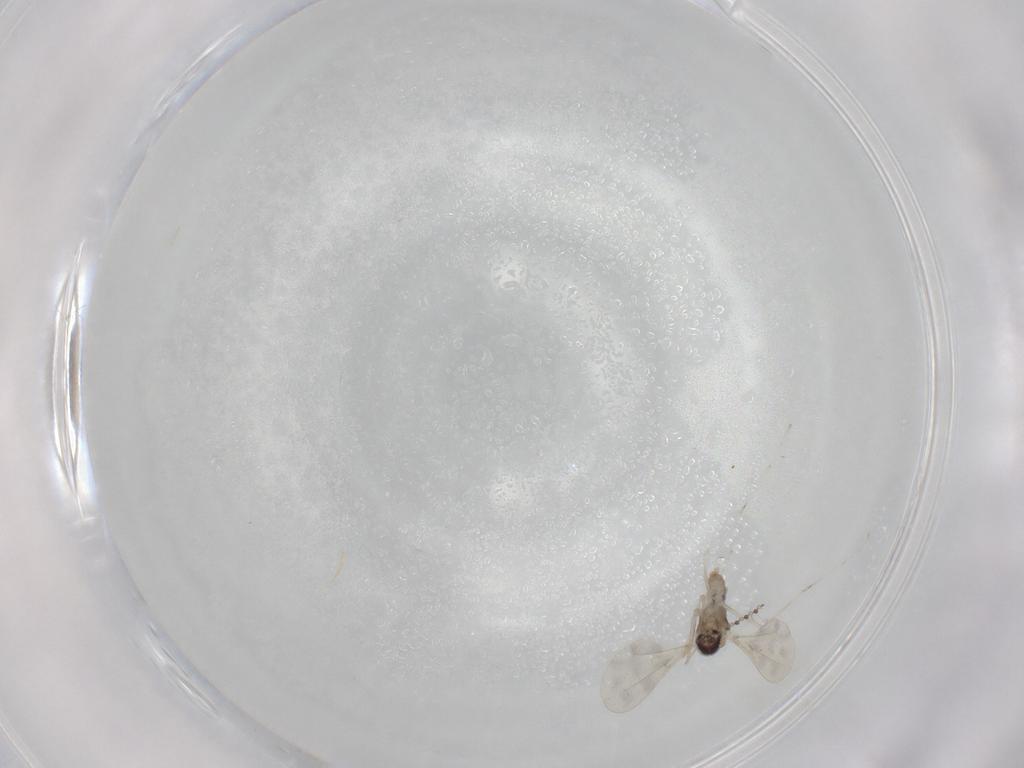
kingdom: Animalia
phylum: Arthropoda
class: Insecta
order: Diptera
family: Cecidomyiidae
